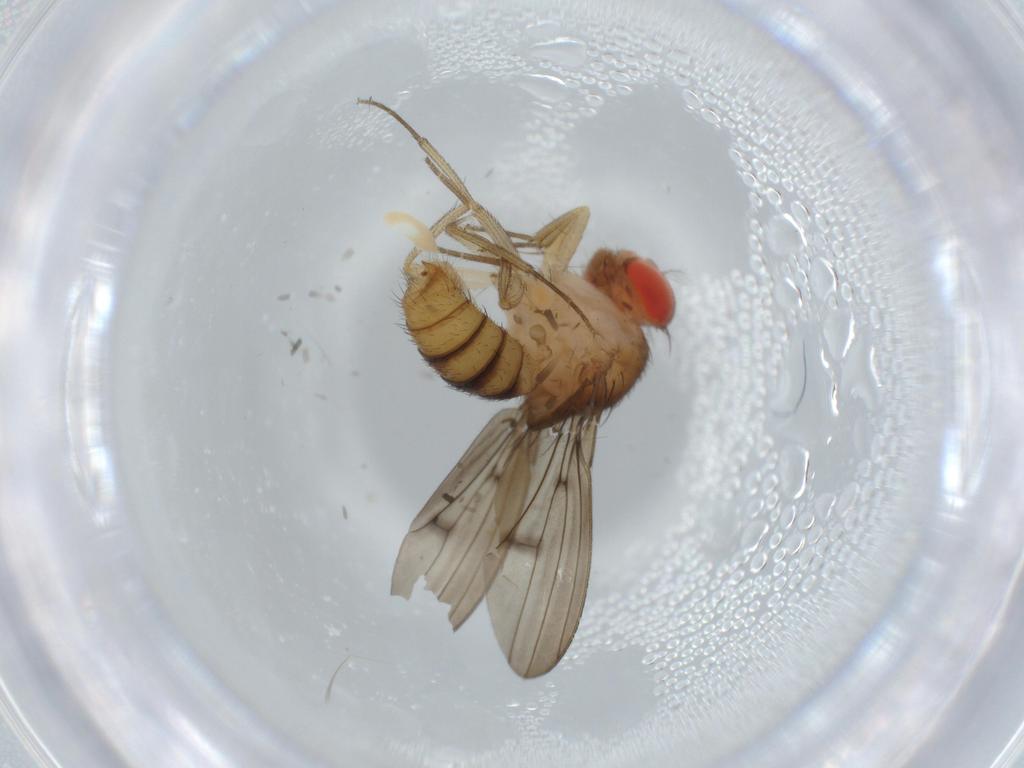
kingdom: Animalia
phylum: Arthropoda
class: Insecta
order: Diptera
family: Drosophilidae
